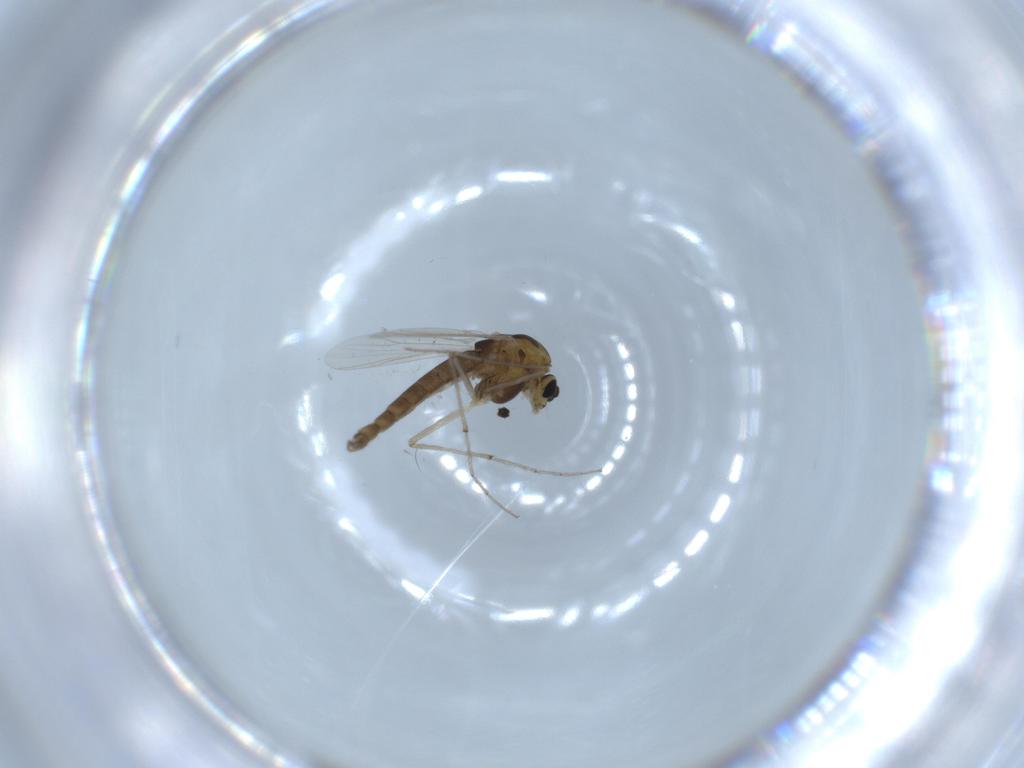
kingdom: Animalia
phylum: Arthropoda
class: Insecta
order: Diptera
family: Chironomidae
